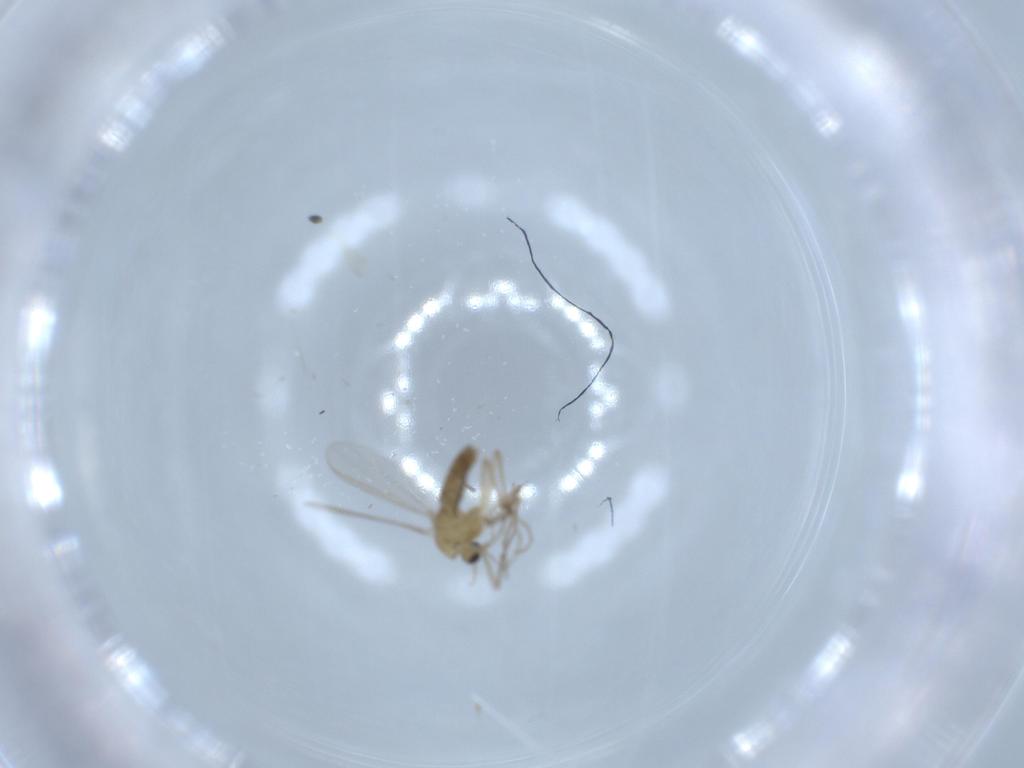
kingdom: Animalia
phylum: Arthropoda
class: Insecta
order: Diptera
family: Chironomidae
